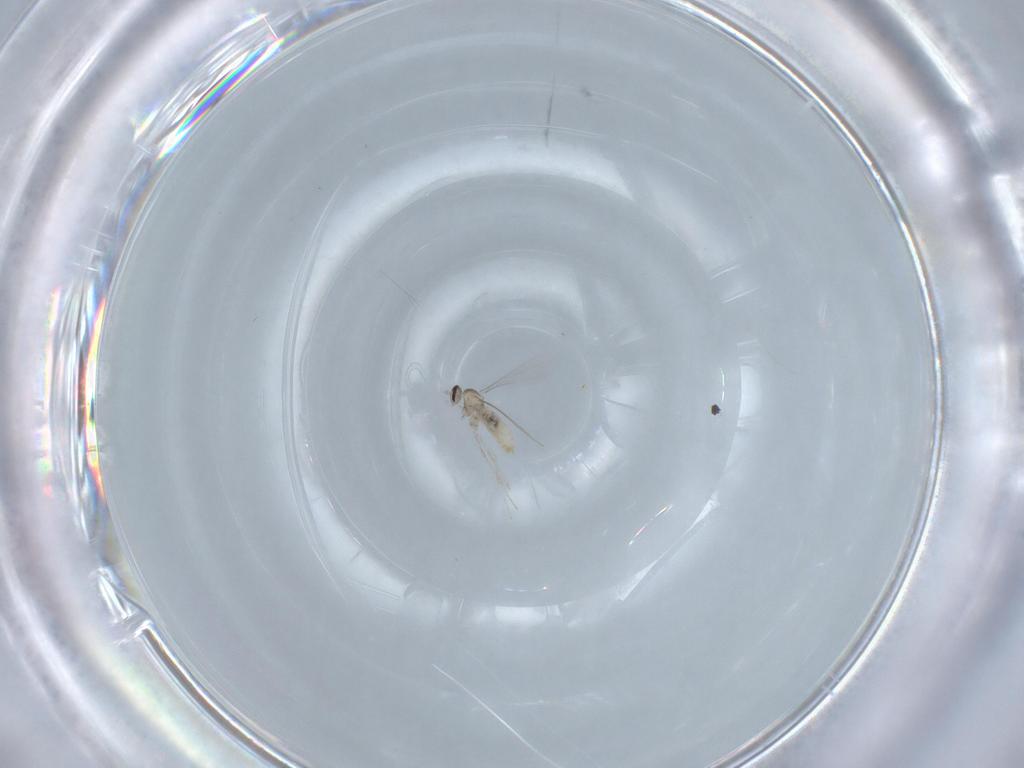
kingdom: Animalia
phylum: Arthropoda
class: Insecta
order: Diptera
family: Cecidomyiidae
